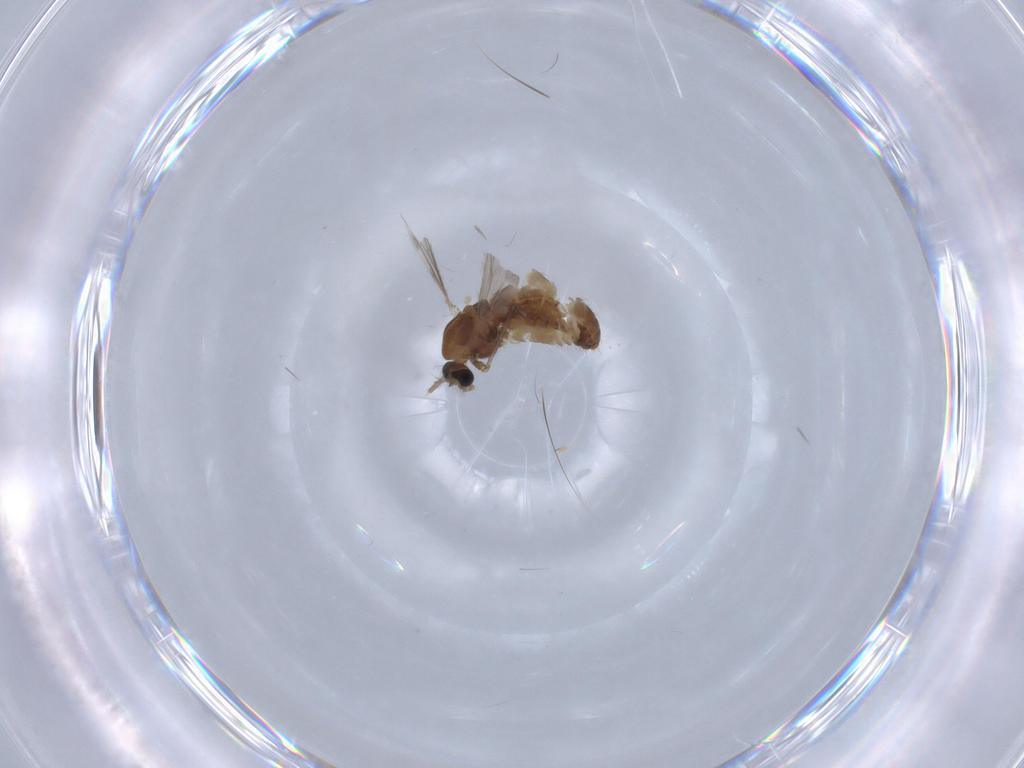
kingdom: Animalia
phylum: Arthropoda
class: Insecta
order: Diptera
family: Chironomidae
